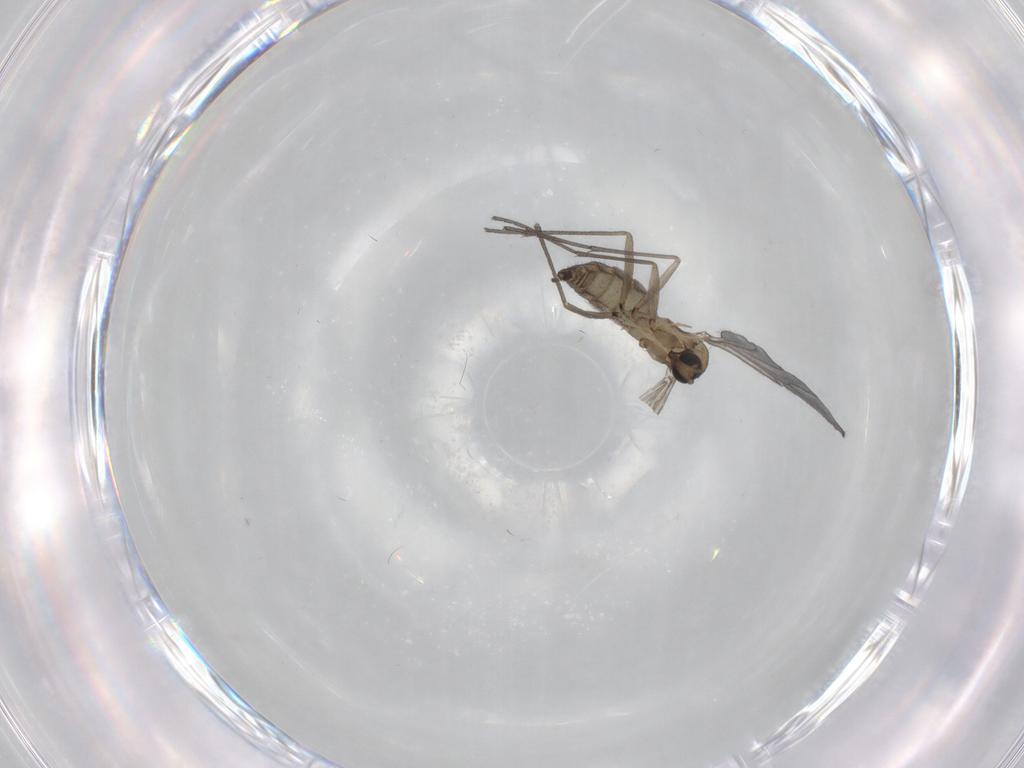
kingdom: Animalia
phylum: Arthropoda
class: Insecta
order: Diptera
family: Sciaridae
